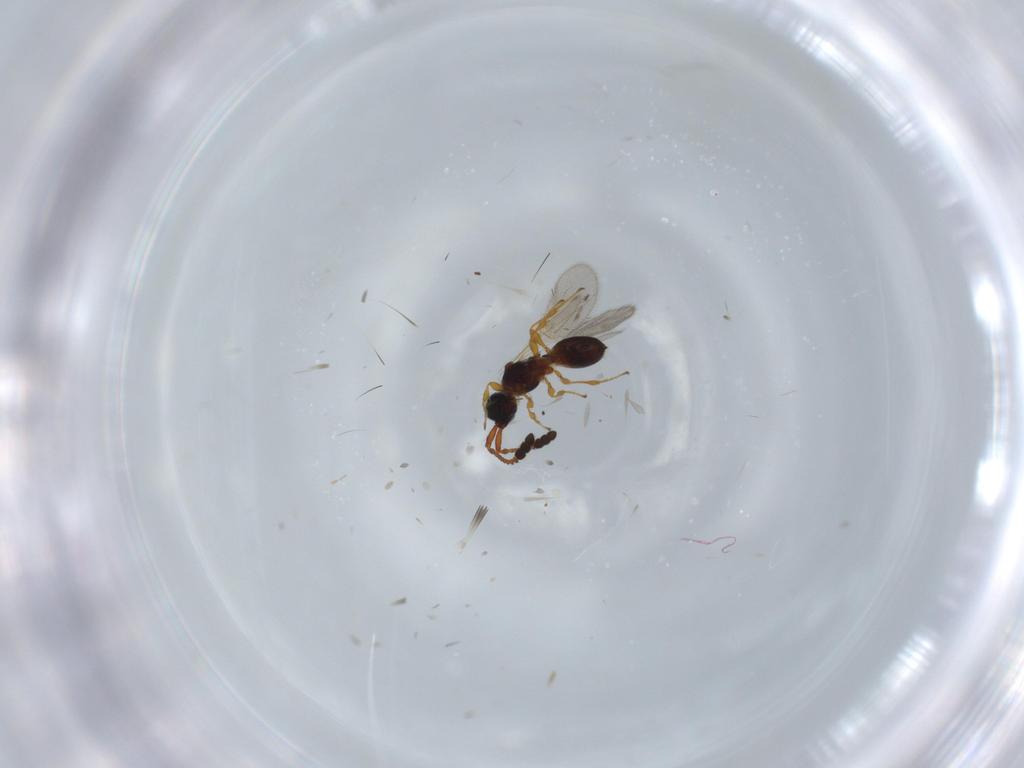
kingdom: Animalia
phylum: Arthropoda
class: Insecta
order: Hymenoptera
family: Diapriidae
